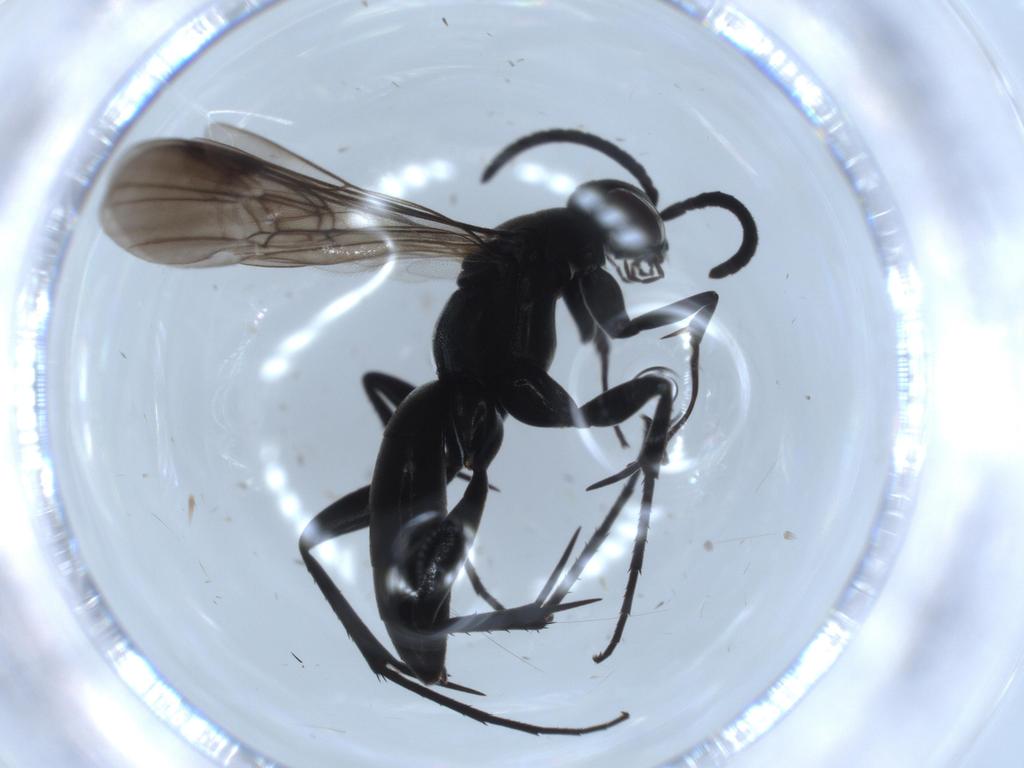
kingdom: Animalia
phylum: Arthropoda
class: Insecta
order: Hymenoptera
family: Pompilidae
